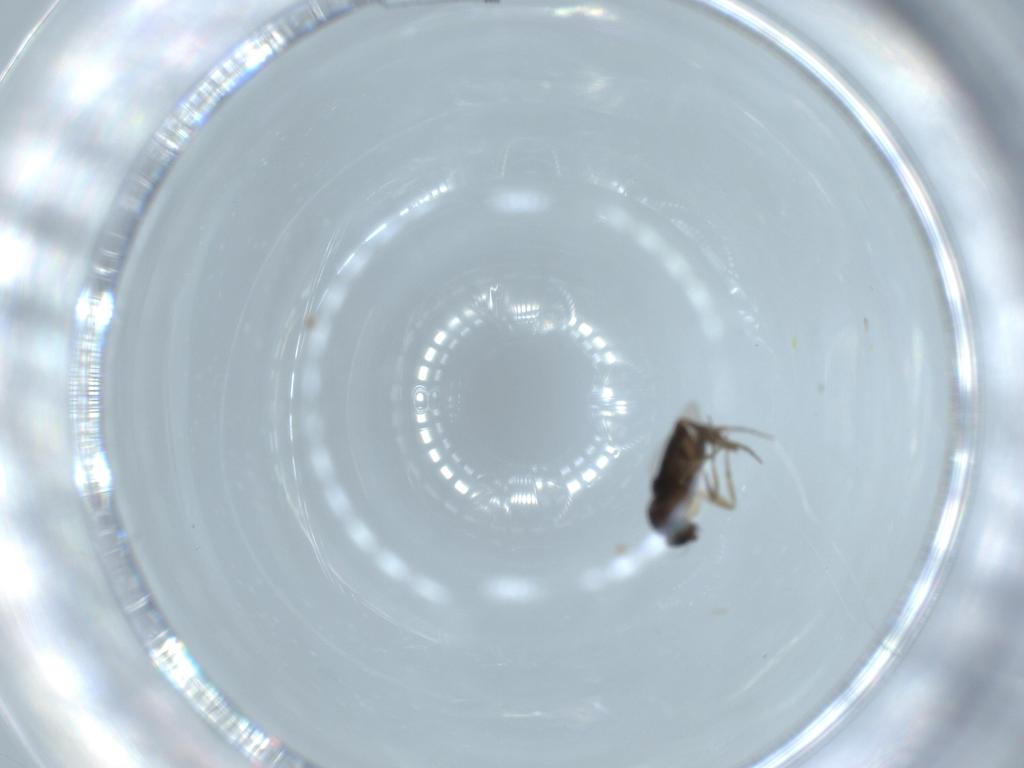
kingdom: Animalia
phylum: Arthropoda
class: Insecta
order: Diptera
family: Phoridae
